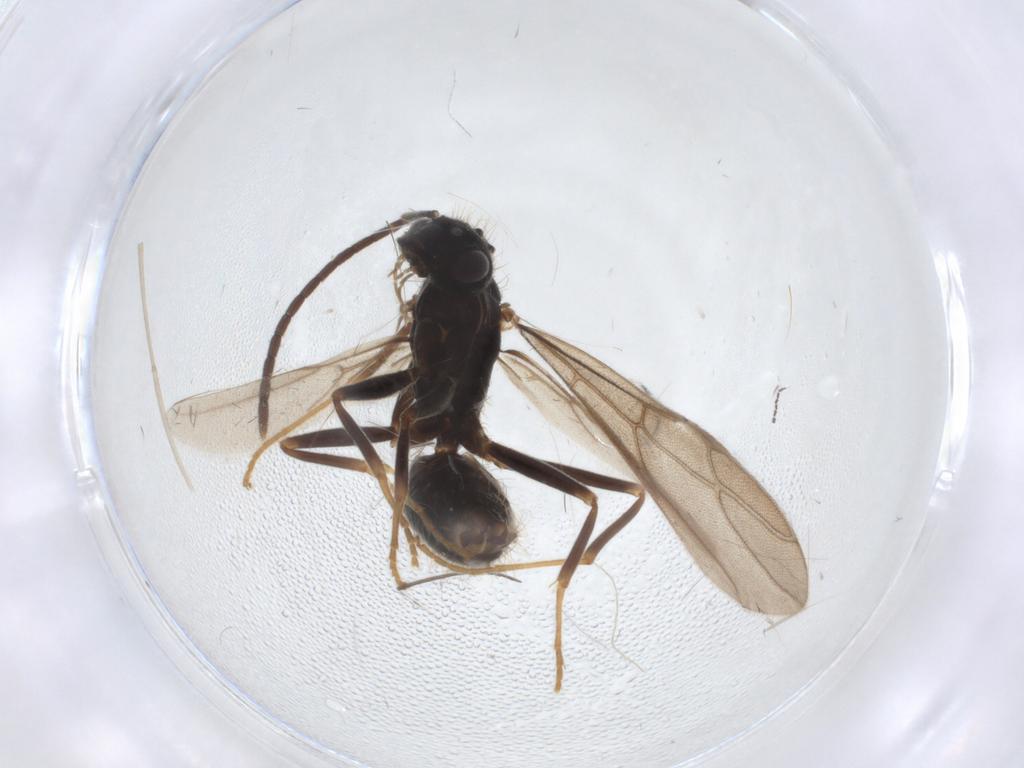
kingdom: Animalia
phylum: Arthropoda
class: Insecta
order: Hymenoptera
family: Formicidae
